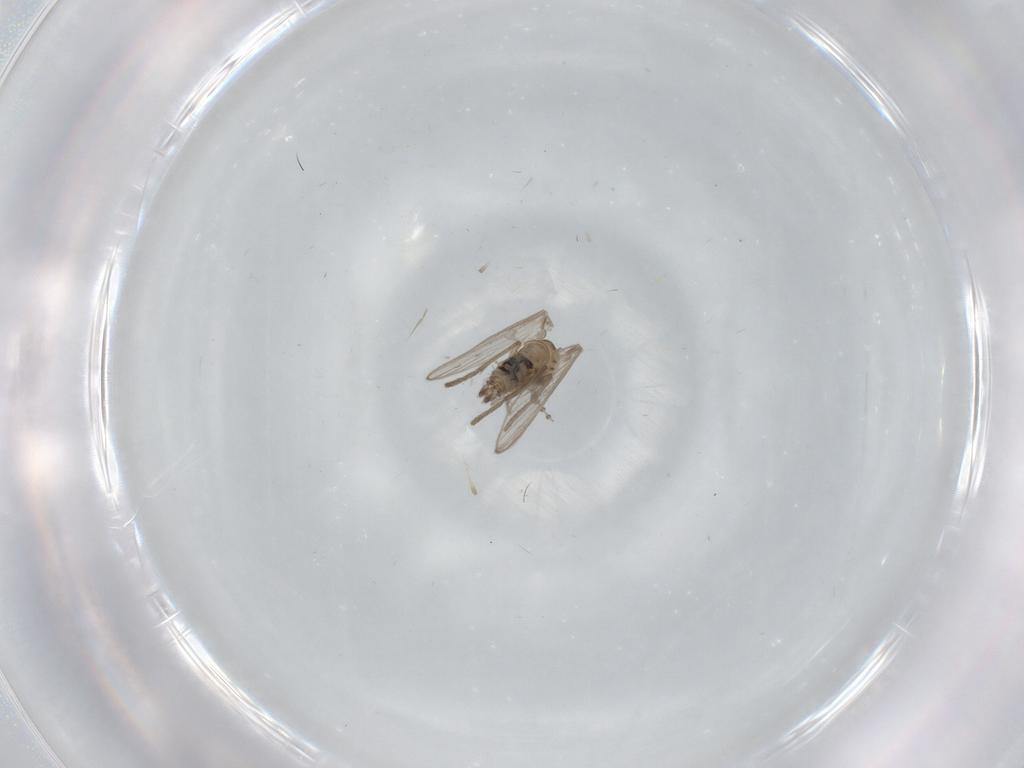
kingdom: Animalia
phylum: Arthropoda
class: Insecta
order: Diptera
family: Psychodidae
